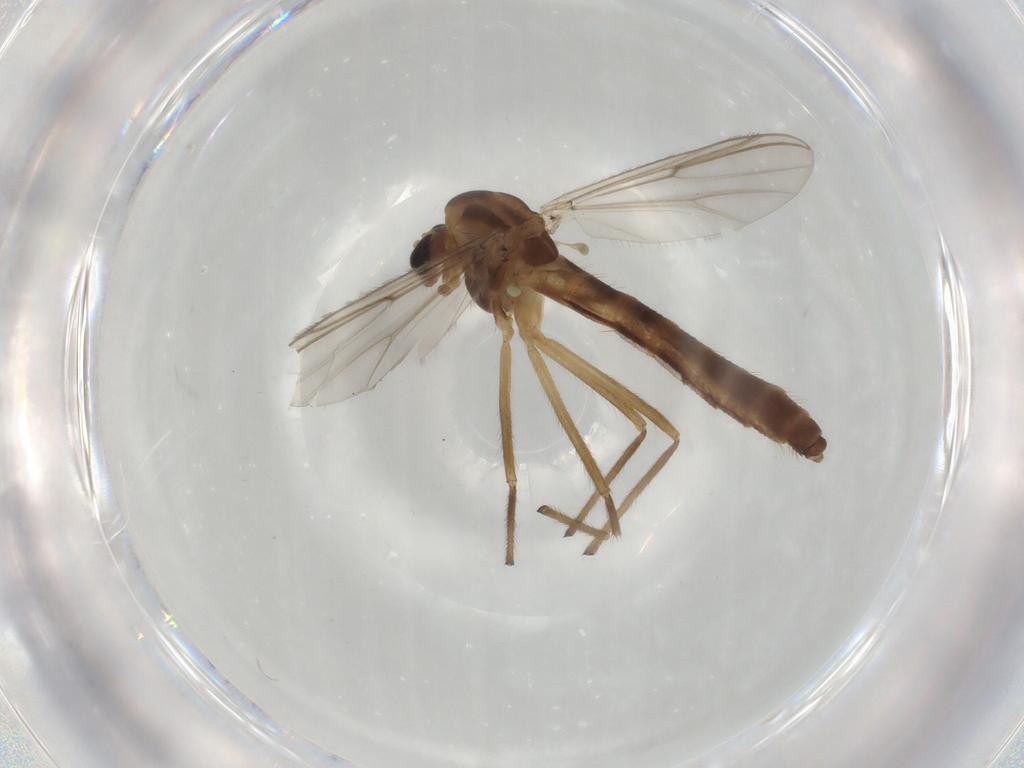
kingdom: Animalia
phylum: Arthropoda
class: Insecta
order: Diptera
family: Chironomidae
